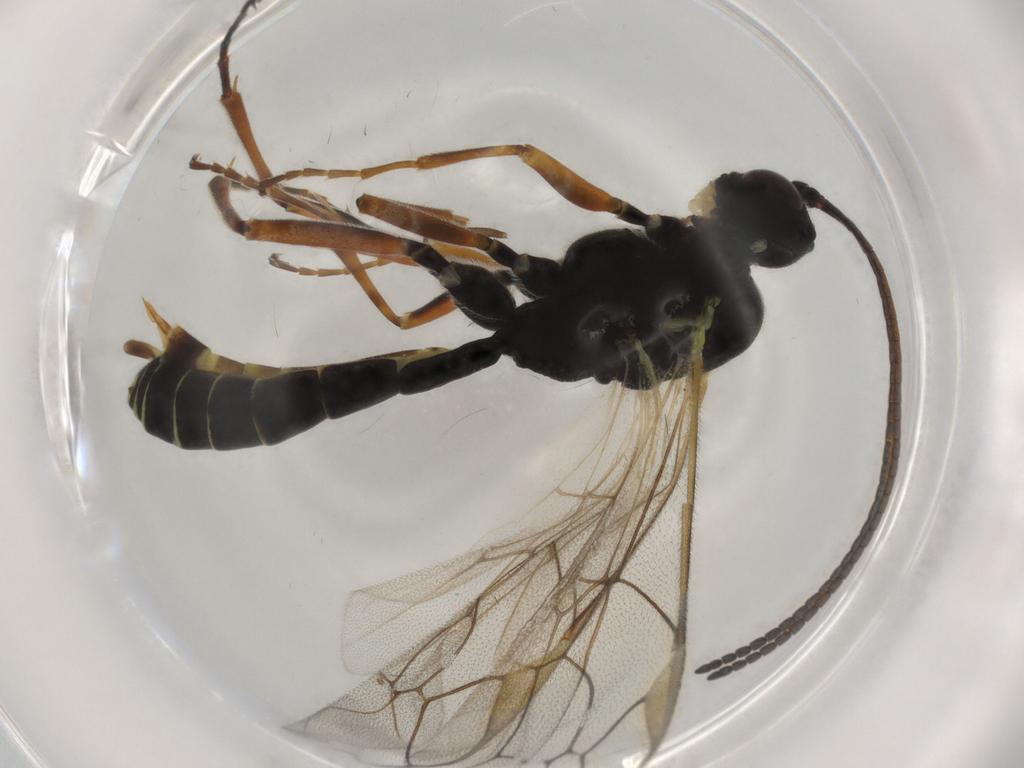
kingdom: Animalia
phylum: Arthropoda
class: Insecta
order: Hymenoptera
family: Ichneumonidae
